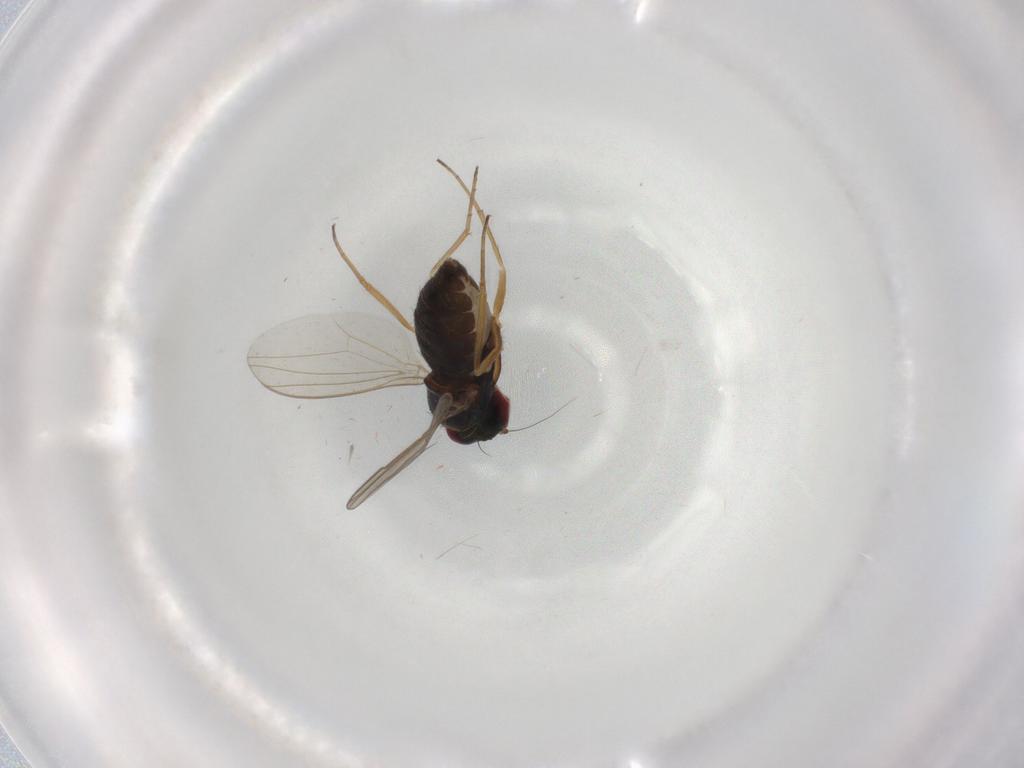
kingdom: Animalia
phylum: Arthropoda
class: Insecta
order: Diptera
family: Dolichopodidae
